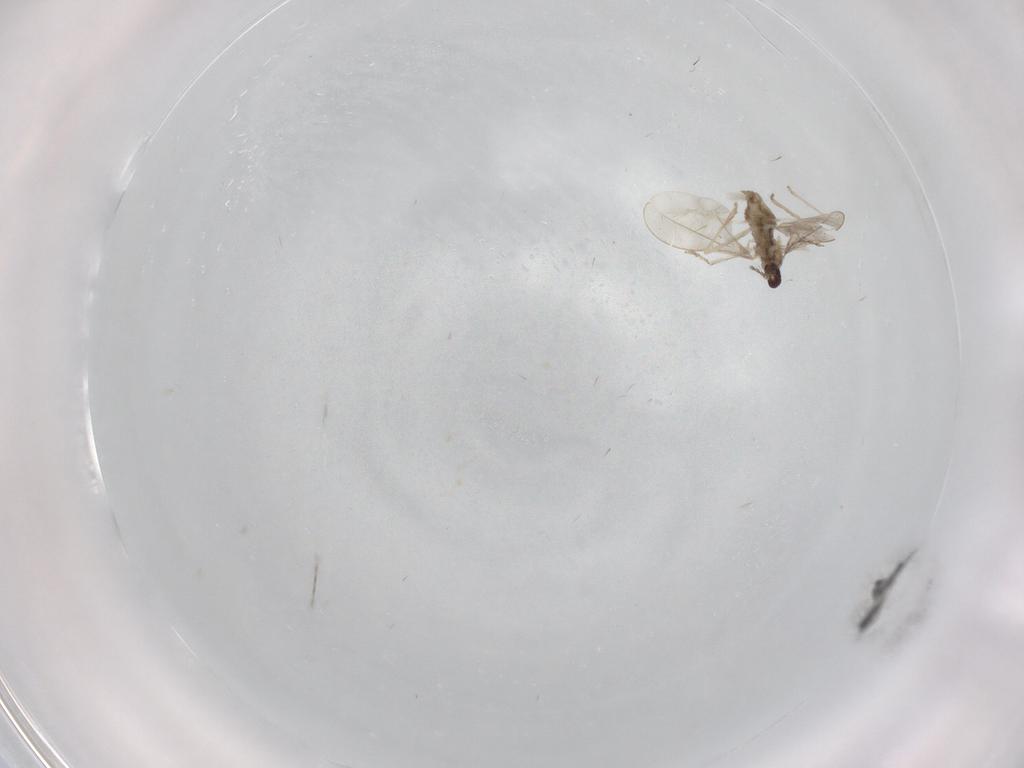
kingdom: Animalia
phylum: Arthropoda
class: Insecta
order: Diptera
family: Cecidomyiidae
